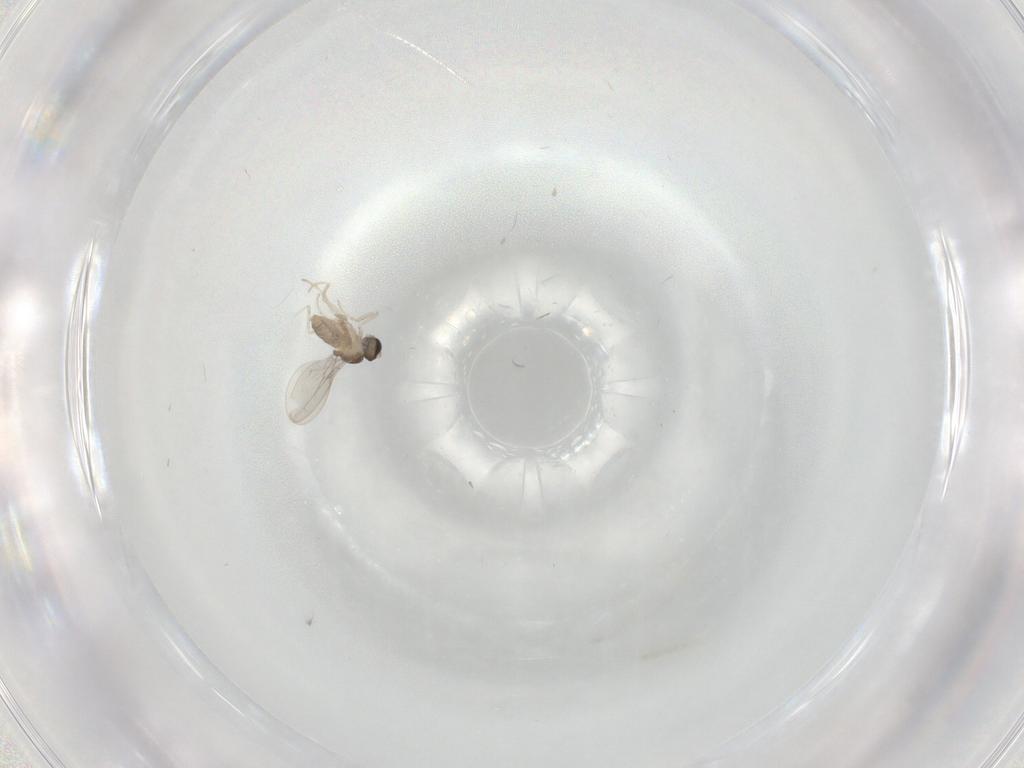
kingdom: Animalia
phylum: Arthropoda
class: Insecta
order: Diptera
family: Cecidomyiidae
